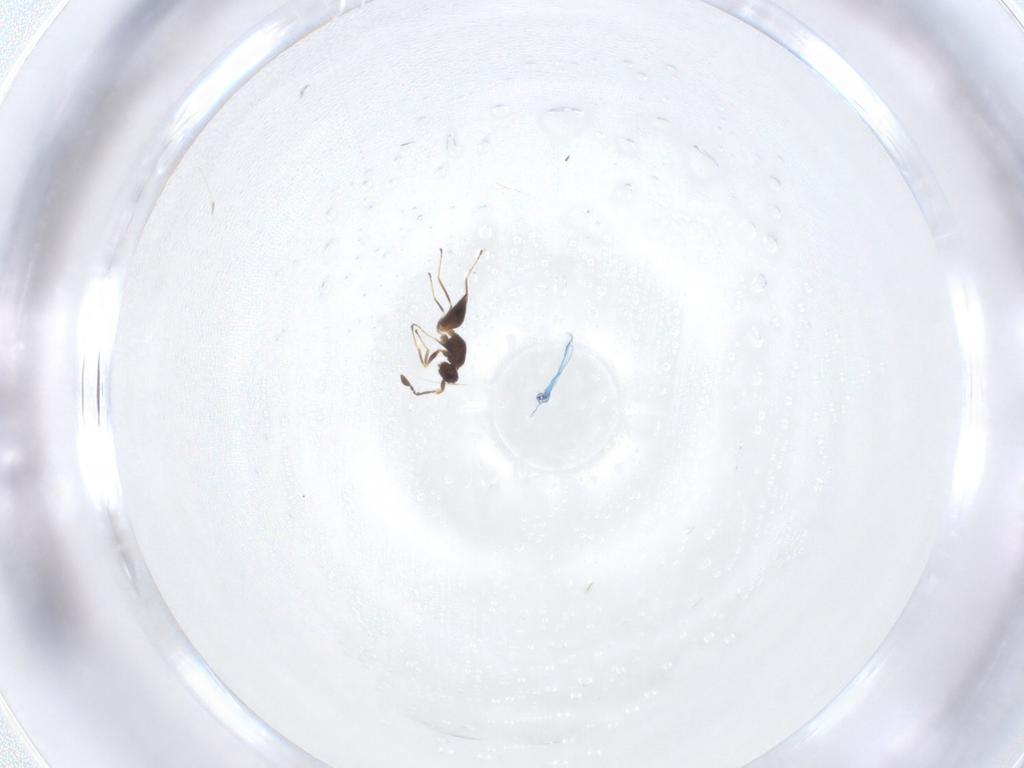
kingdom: Animalia
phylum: Arthropoda
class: Insecta
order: Hymenoptera
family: Mymaridae
